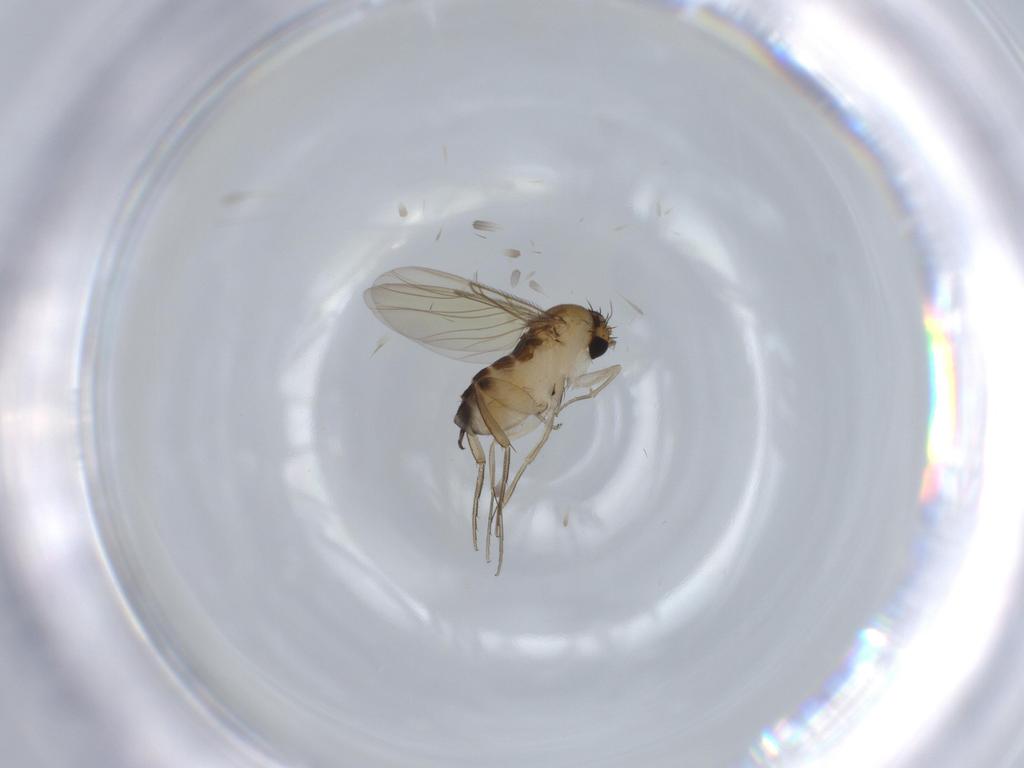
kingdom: Animalia
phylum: Arthropoda
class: Insecta
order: Diptera
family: Phoridae
